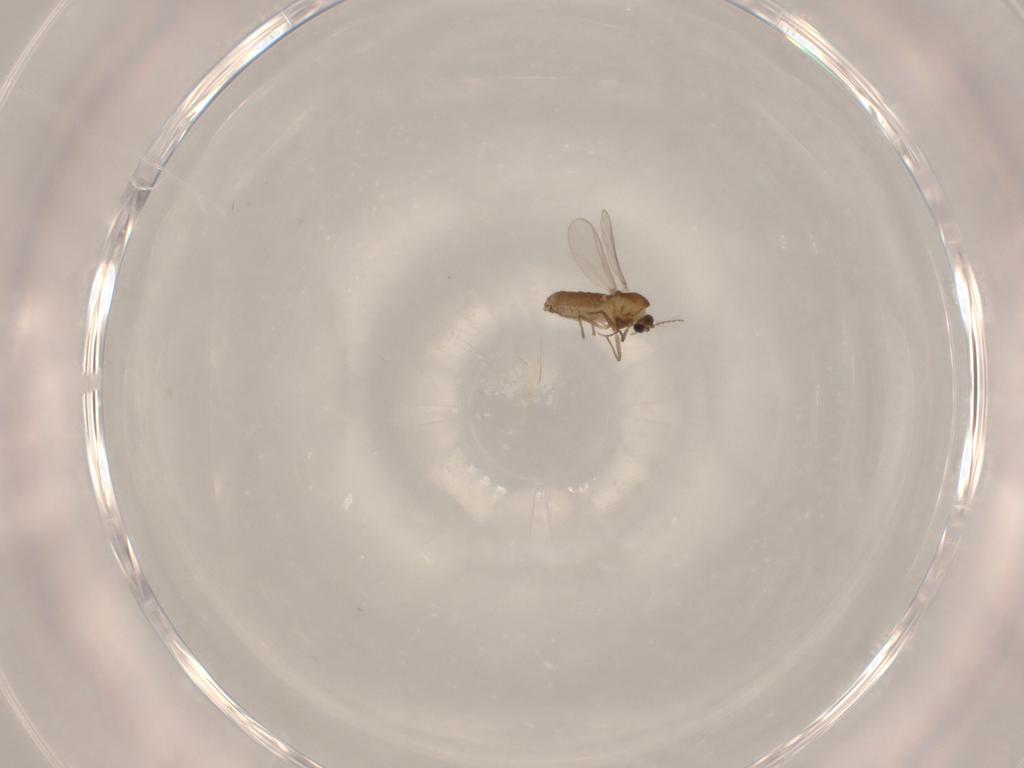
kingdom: Animalia
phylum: Arthropoda
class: Insecta
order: Diptera
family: Chironomidae
